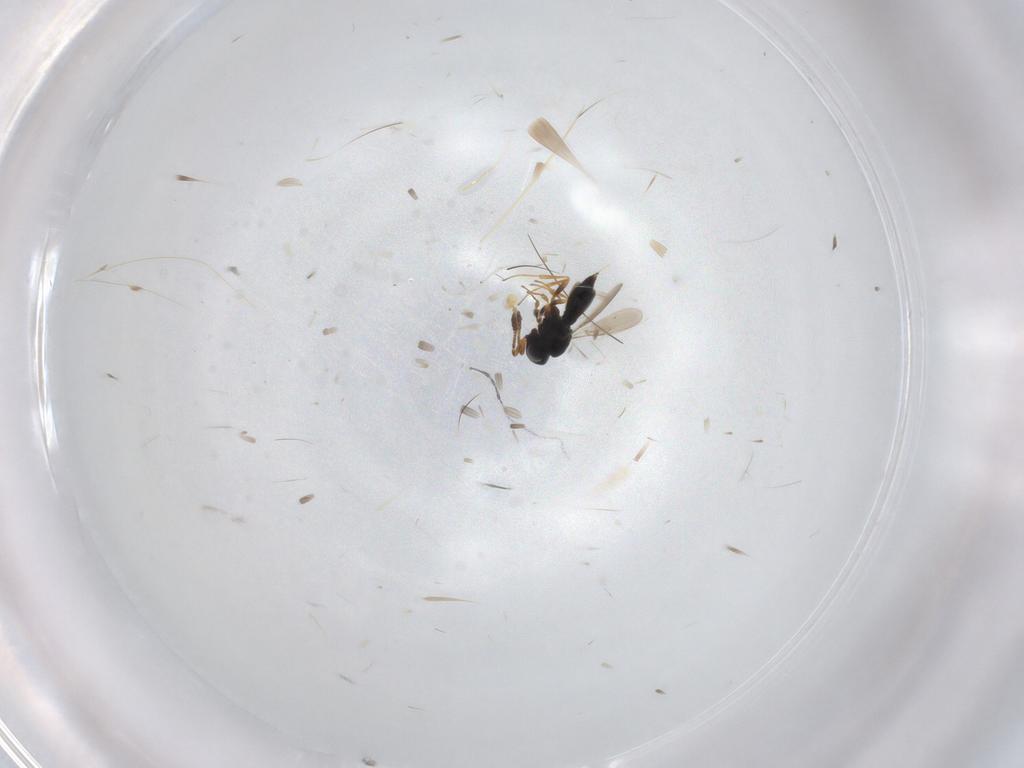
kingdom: Animalia
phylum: Arthropoda
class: Insecta
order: Hymenoptera
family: Scelionidae
